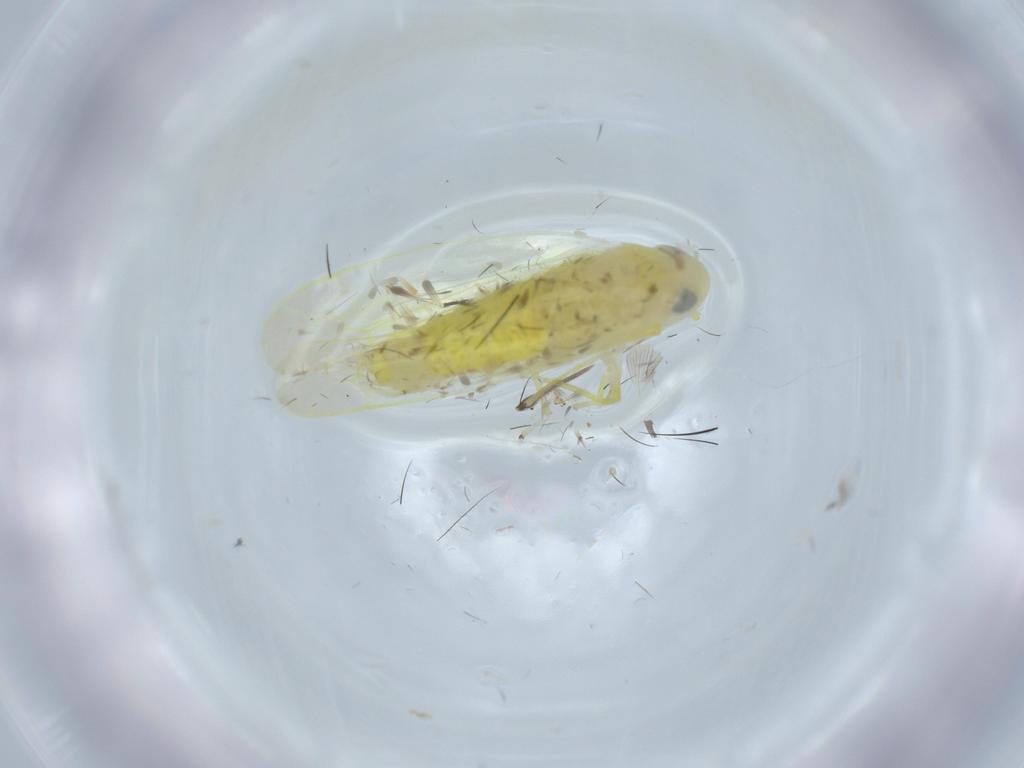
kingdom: Animalia
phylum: Arthropoda
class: Insecta
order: Hemiptera
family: Cicadellidae
